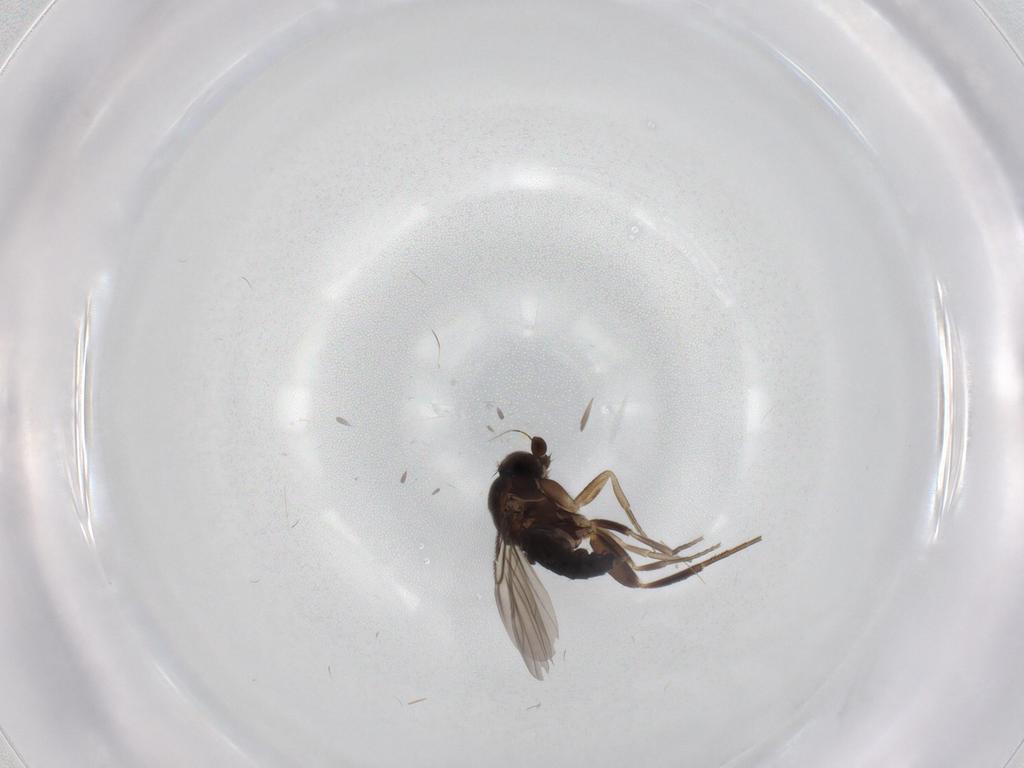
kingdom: Animalia
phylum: Arthropoda
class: Insecta
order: Diptera
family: Phoridae
